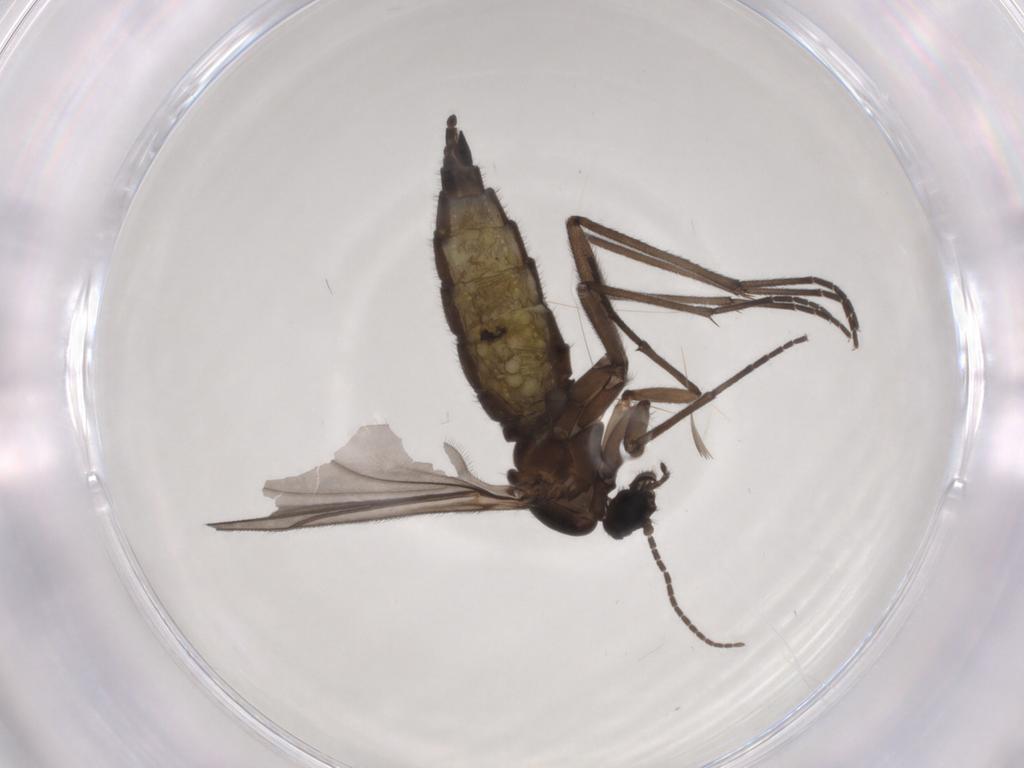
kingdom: Animalia
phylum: Arthropoda
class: Insecta
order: Diptera
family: Sciaridae
